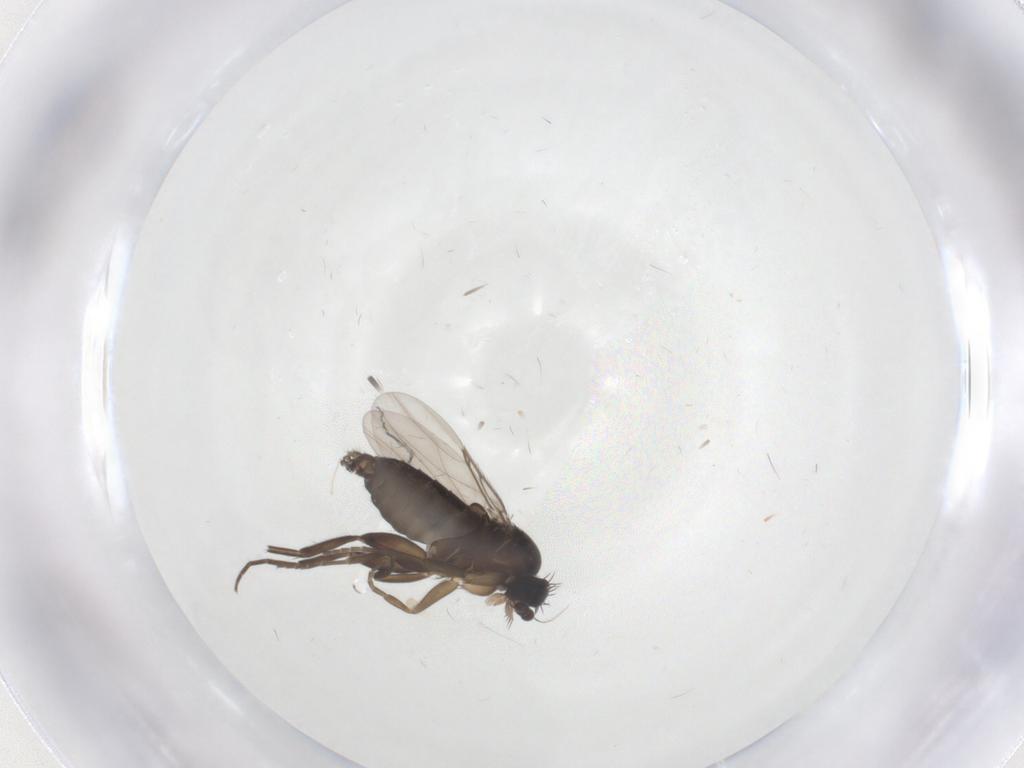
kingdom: Animalia
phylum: Arthropoda
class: Insecta
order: Diptera
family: Phoridae
